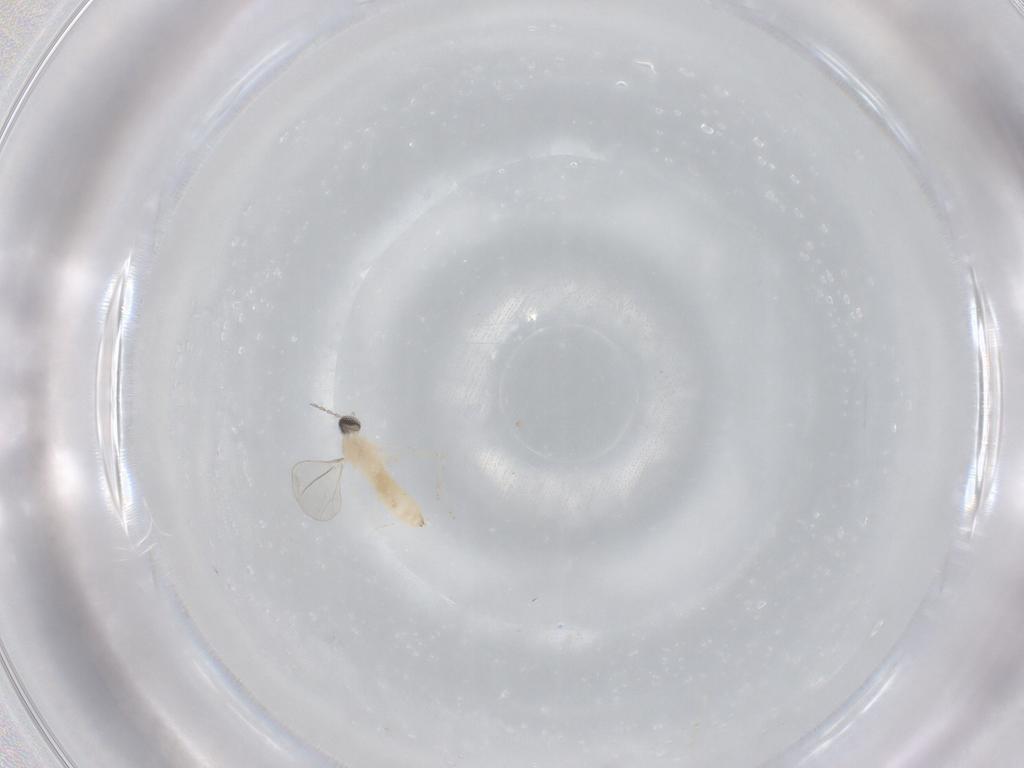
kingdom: Animalia
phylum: Arthropoda
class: Insecta
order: Diptera
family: Cecidomyiidae
